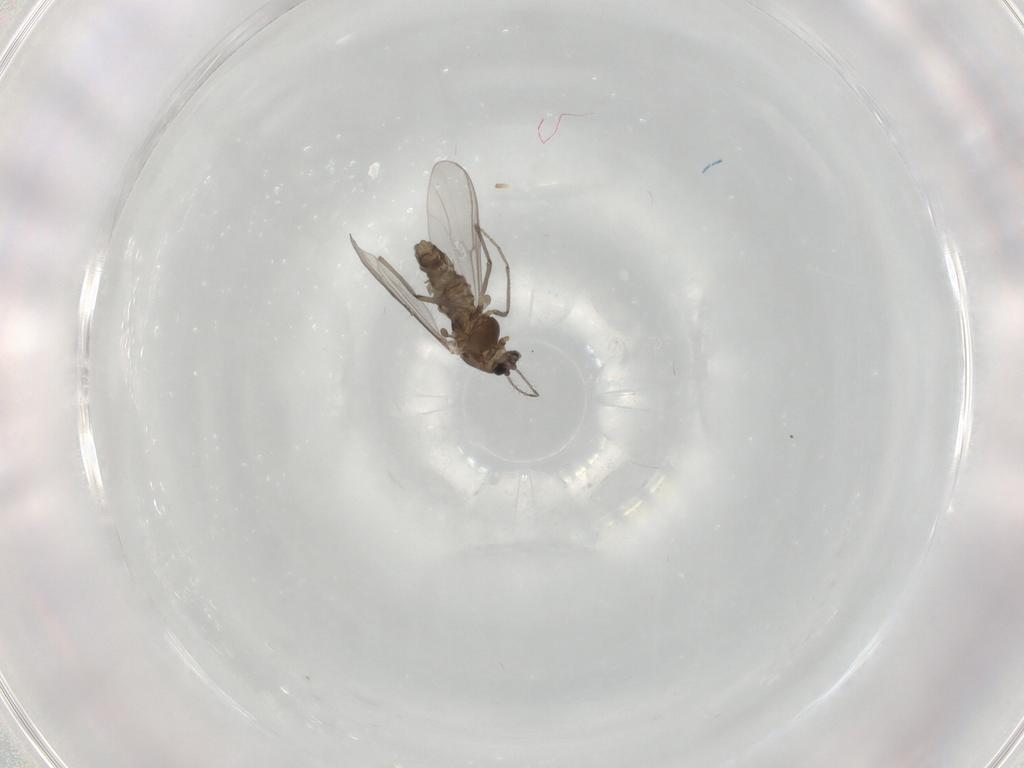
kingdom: Animalia
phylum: Arthropoda
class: Insecta
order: Diptera
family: Chironomidae
